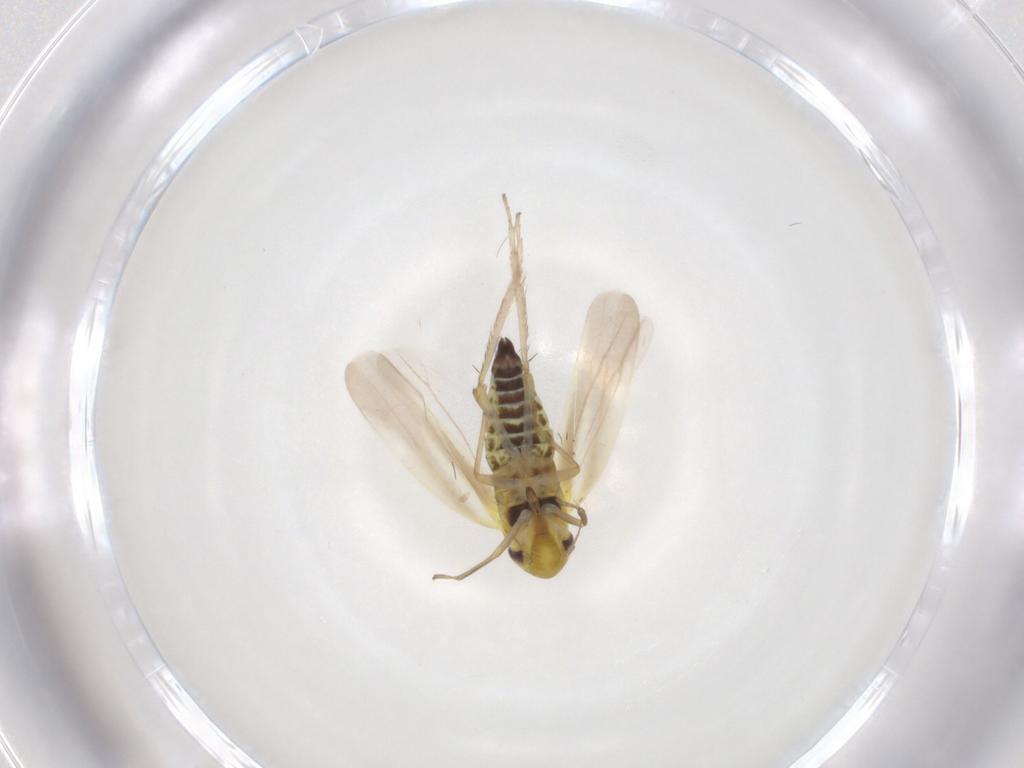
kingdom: Animalia
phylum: Arthropoda
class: Insecta
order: Hemiptera
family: Cicadellidae
